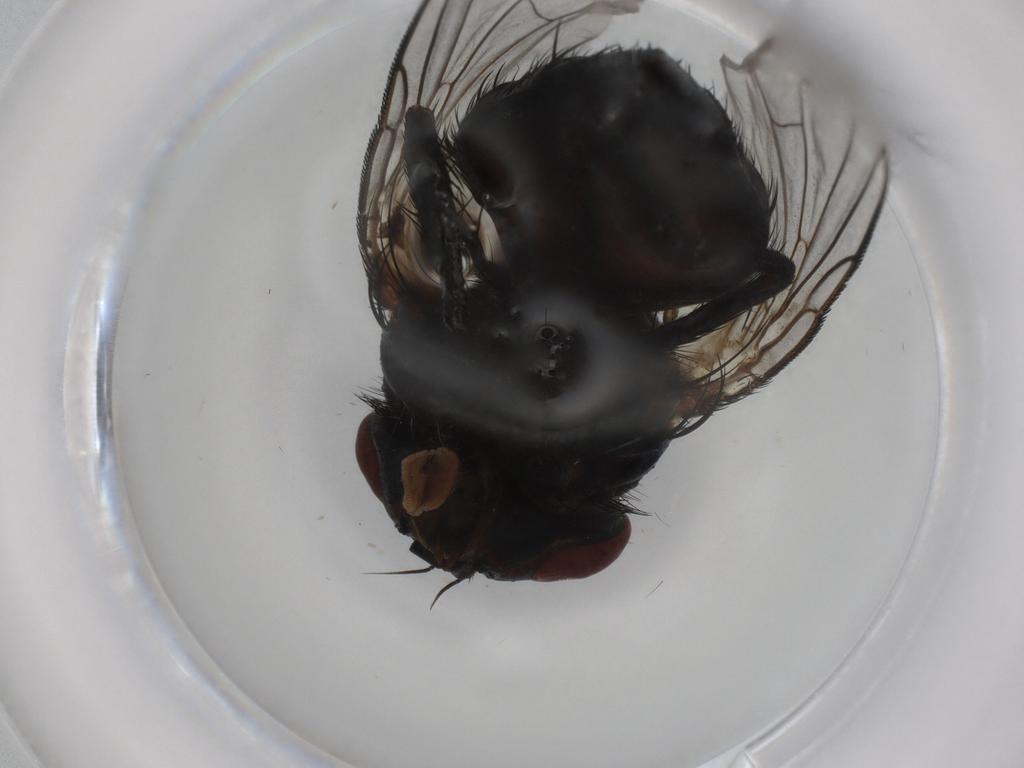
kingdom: Animalia
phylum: Arthropoda
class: Insecta
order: Diptera
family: Tachinidae
